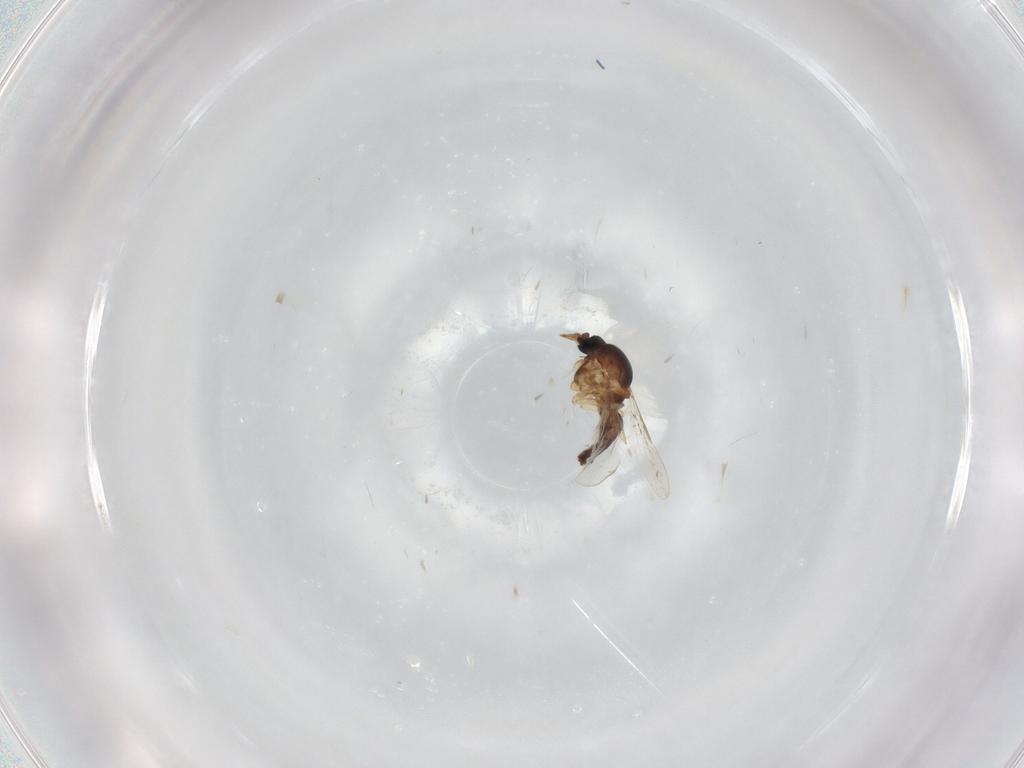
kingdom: Animalia
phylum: Arthropoda
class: Insecta
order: Diptera
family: Ceratopogonidae
